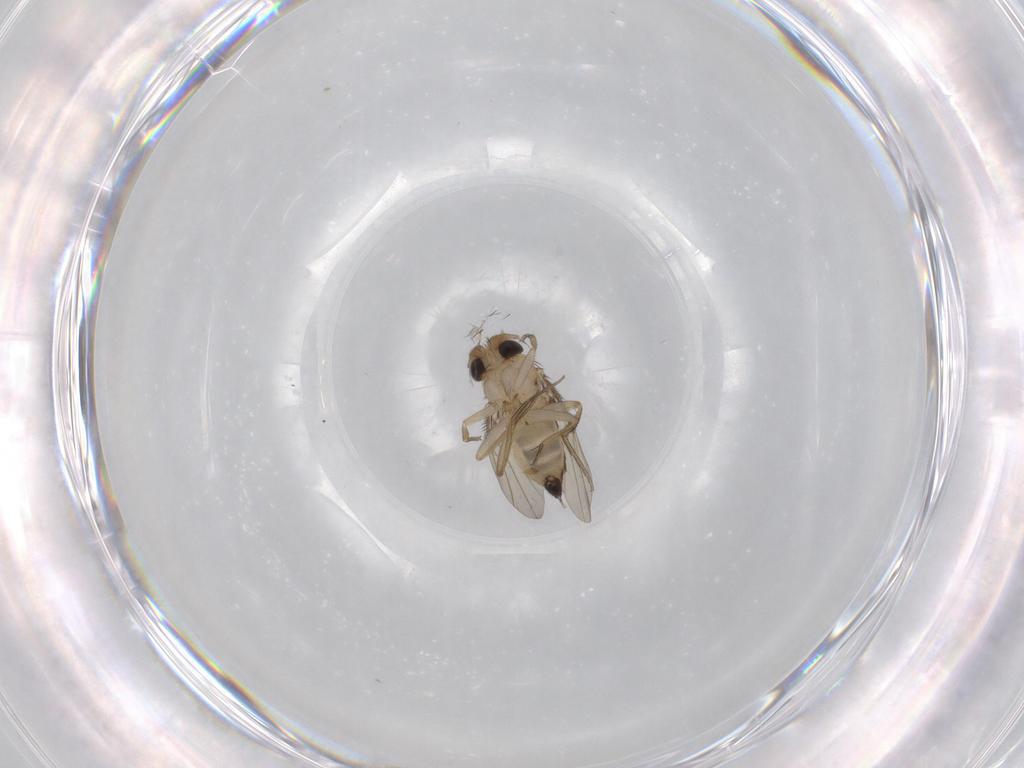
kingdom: Animalia
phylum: Arthropoda
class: Insecta
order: Diptera
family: Phoridae
